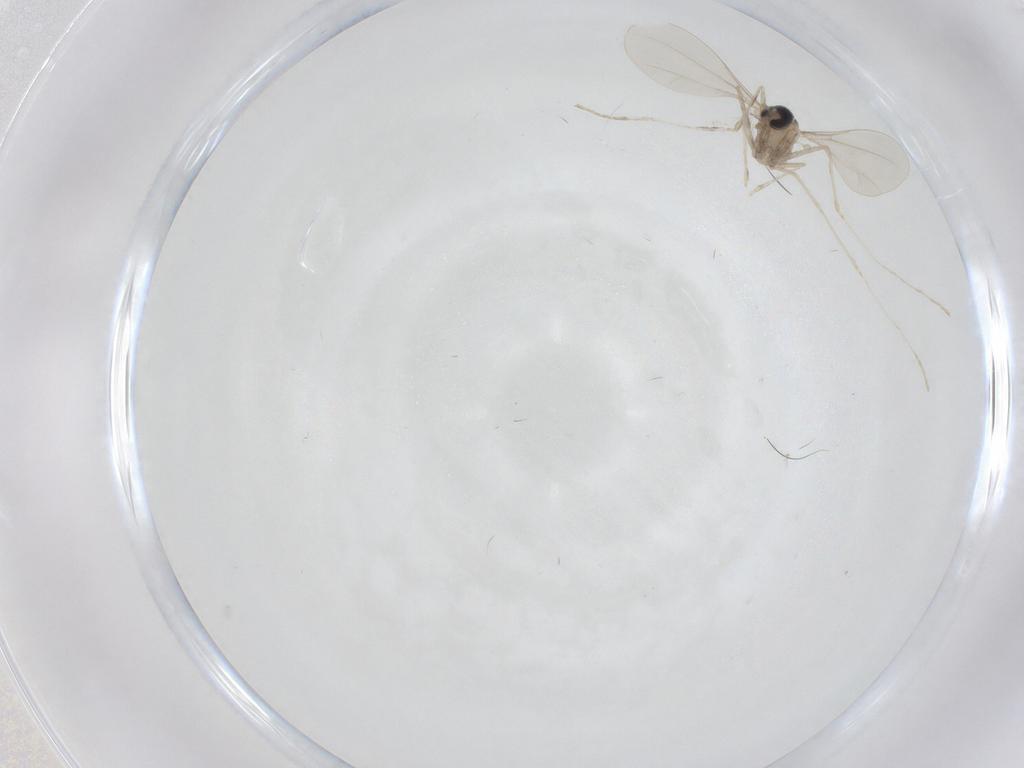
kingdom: Animalia
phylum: Arthropoda
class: Insecta
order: Diptera
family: Cecidomyiidae
